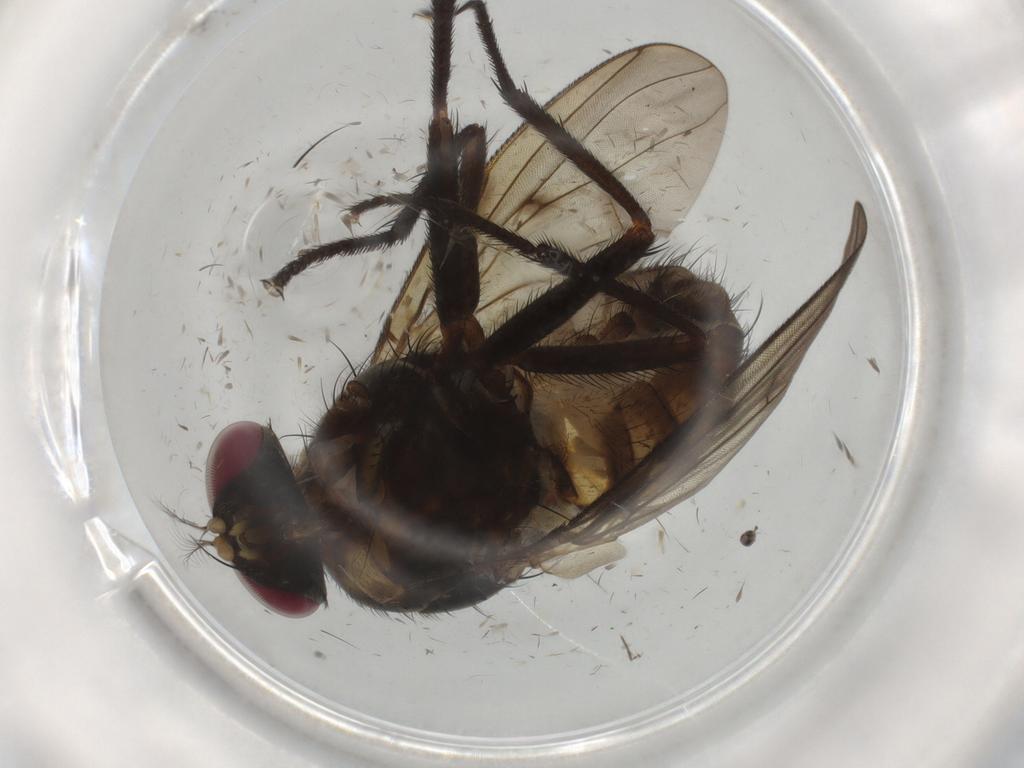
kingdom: Animalia
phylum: Arthropoda
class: Insecta
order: Diptera
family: Muscidae
